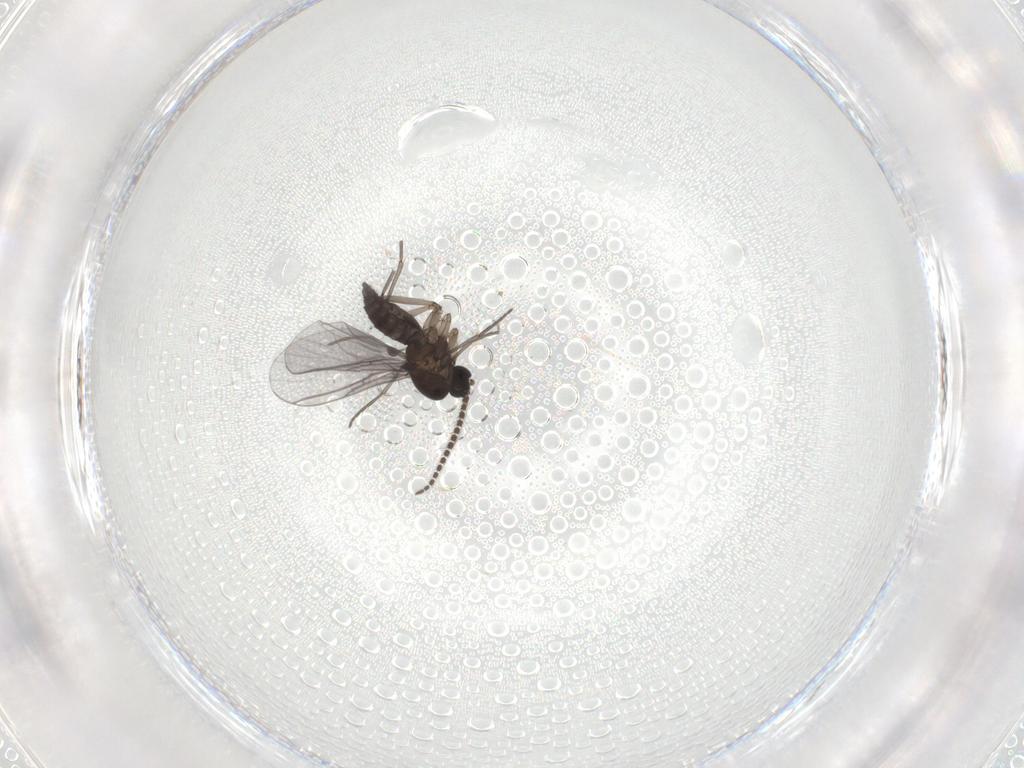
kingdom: Animalia
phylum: Arthropoda
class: Insecta
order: Diptera
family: Ceratopogonidae
